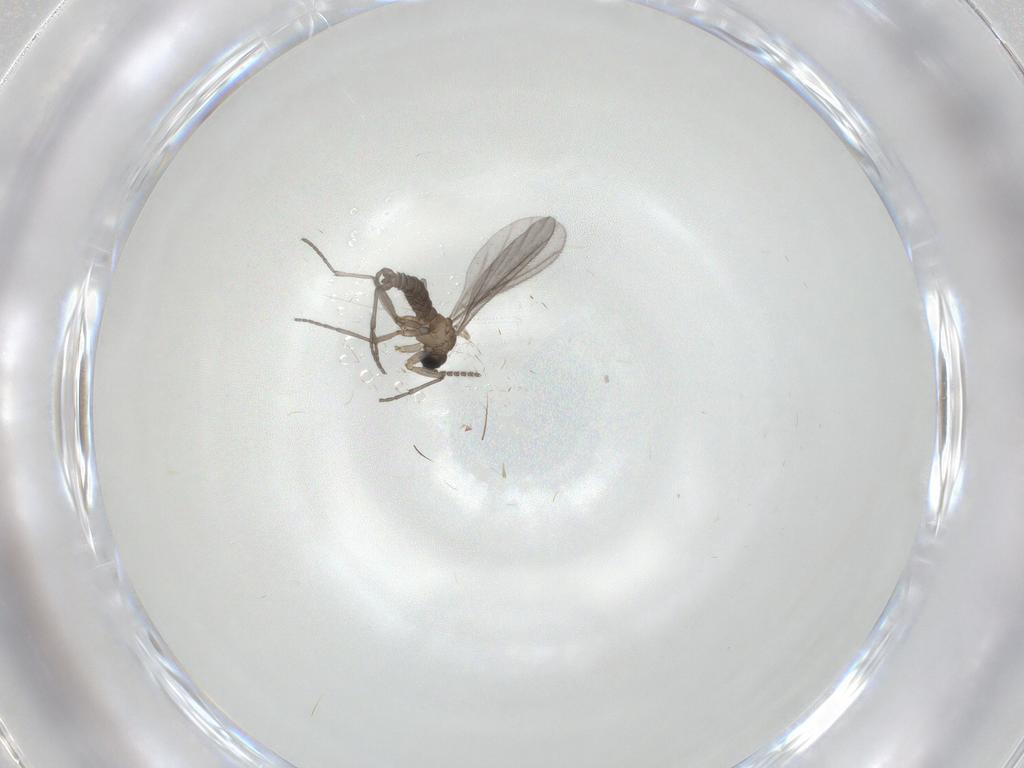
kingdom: Animalia
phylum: Arthropoda
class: Insecta
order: Diptera
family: Sciaridae
